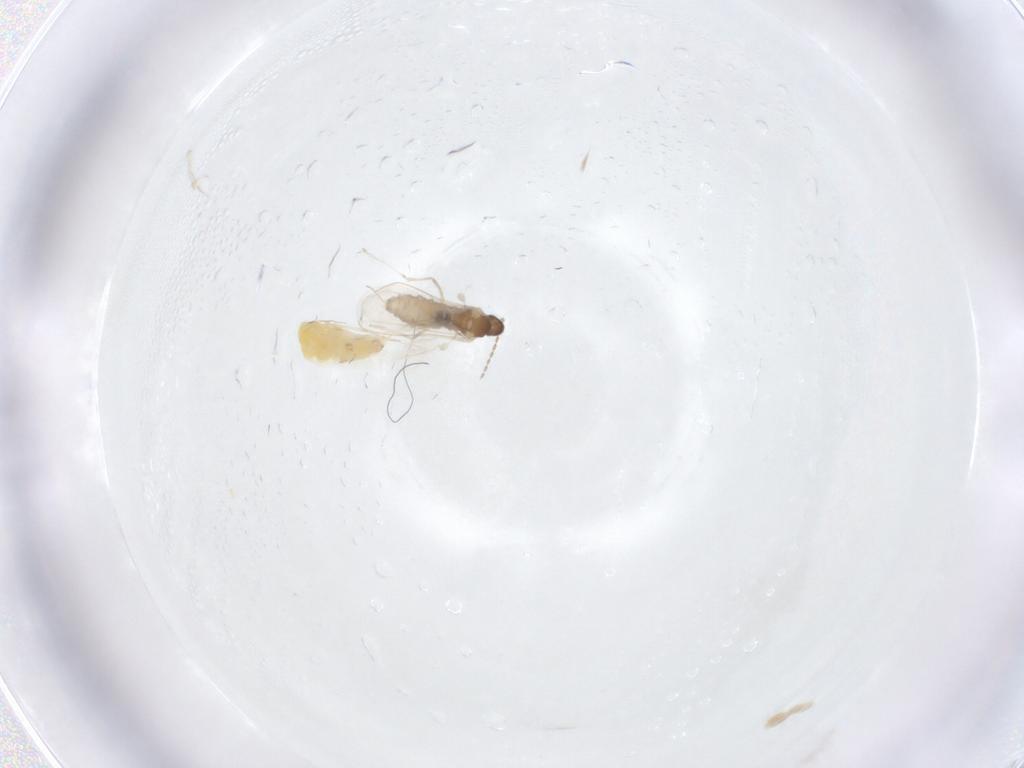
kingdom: Animalia
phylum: Arthropoda
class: Insecta
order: Diptera
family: Cecidomyiidae
